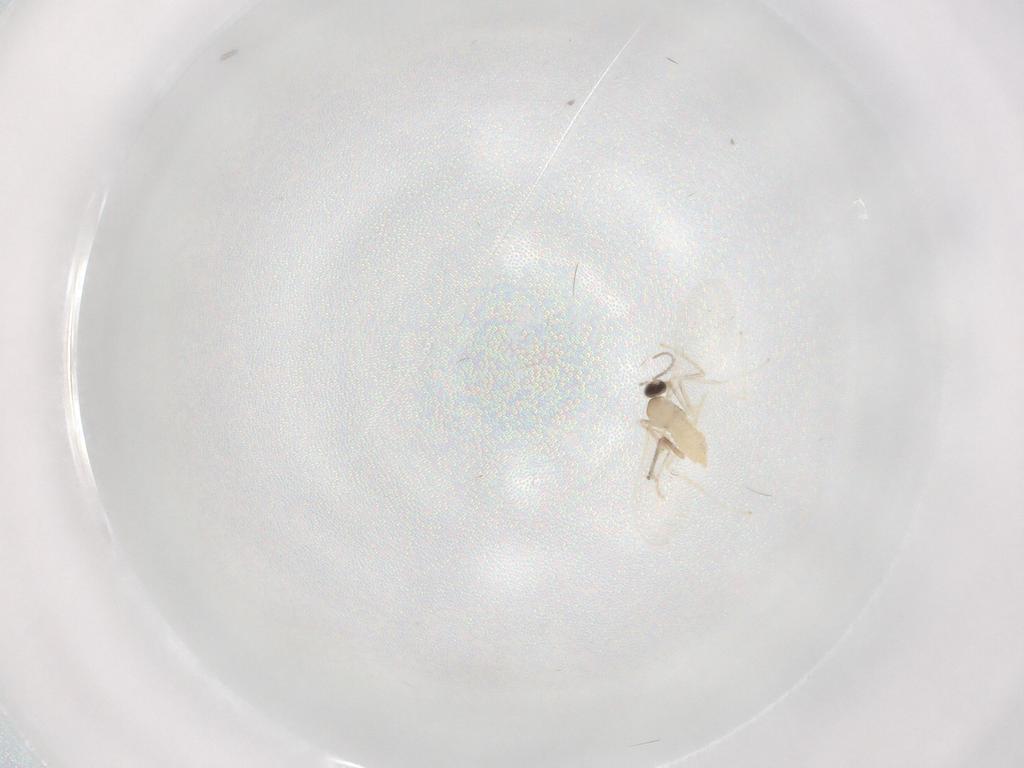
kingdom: Animalia
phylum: Arthropoda
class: Insecta
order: Diptera
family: Cecidomyiidae
